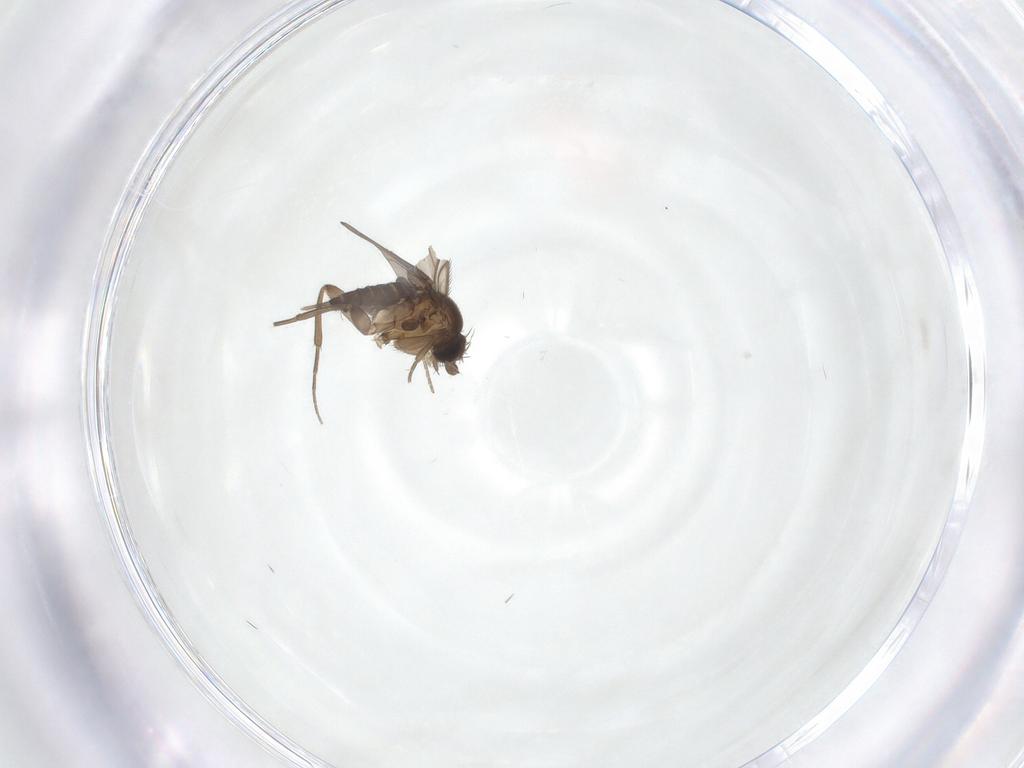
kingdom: Animalia
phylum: Arthropoda
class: Insecta
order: Diptera
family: Phoridae
